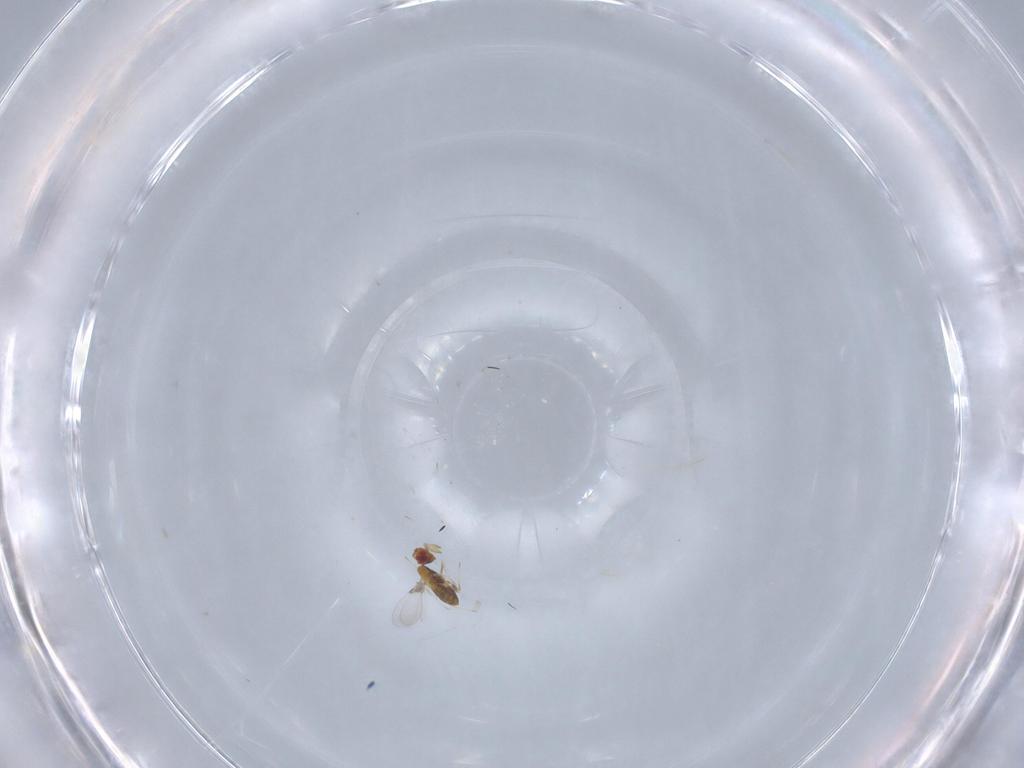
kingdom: Animalia
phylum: Arthropoda
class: Insecta
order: Hymenoptera
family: Trichogrammatidae
